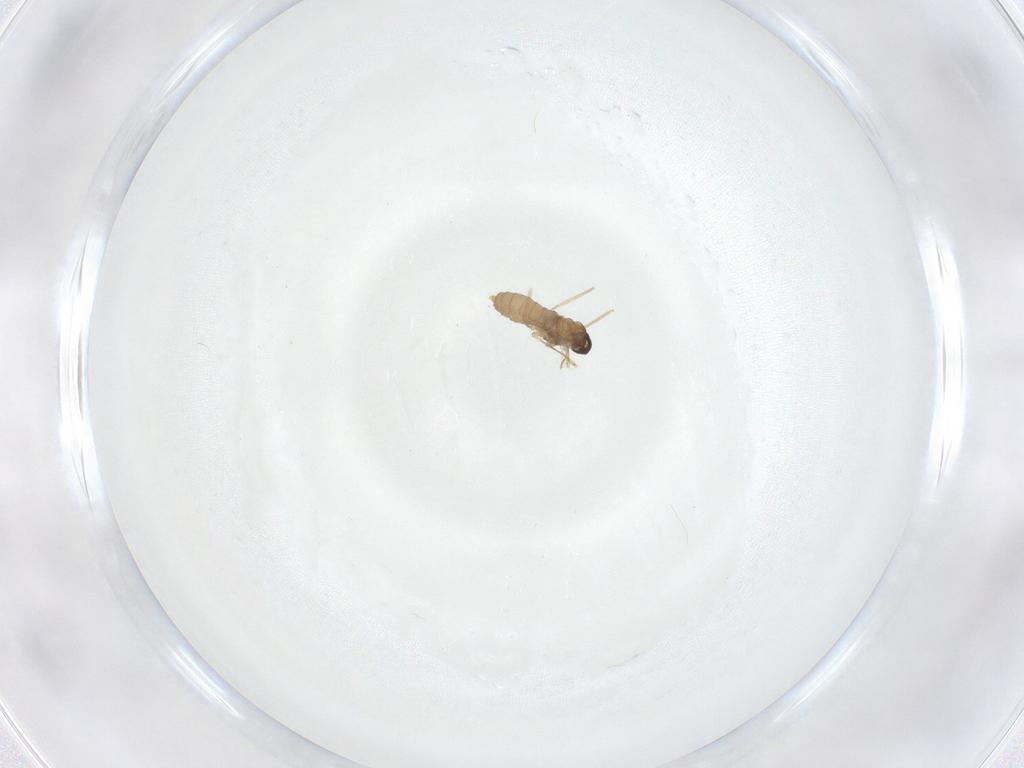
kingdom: Animalia
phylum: Arthropoda
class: Insecta
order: Diptera
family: Cecidomyiidae
